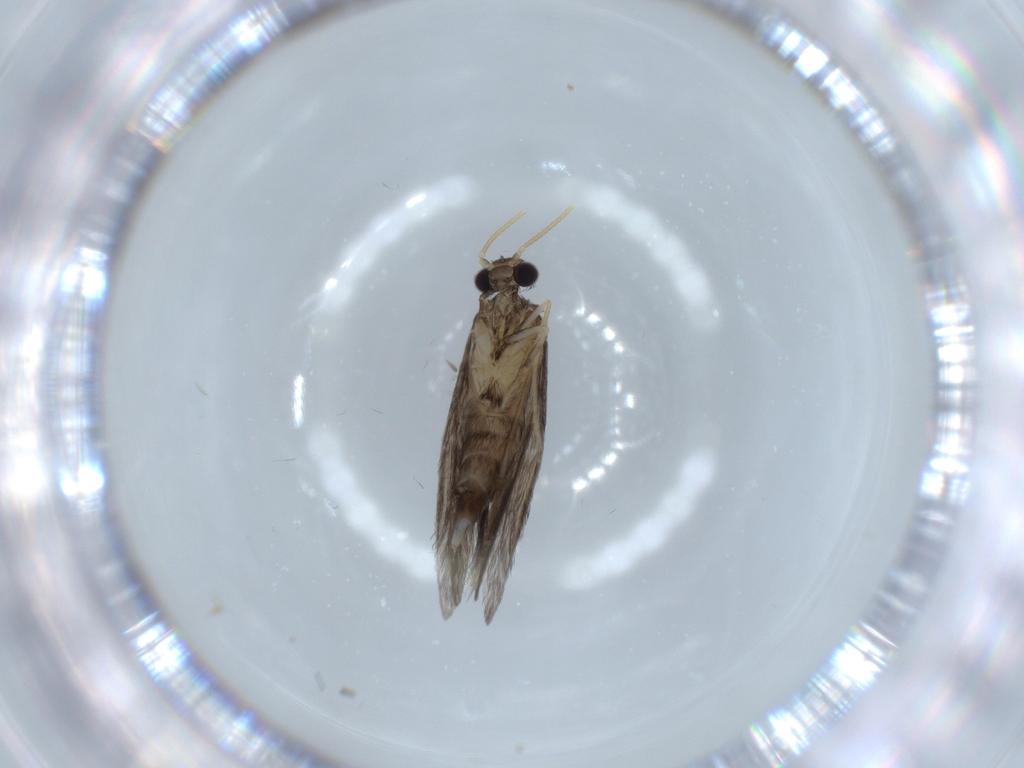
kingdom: Animalia
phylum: Arthropoda
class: Insecta
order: Trichoptera
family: Hydroptilidae
